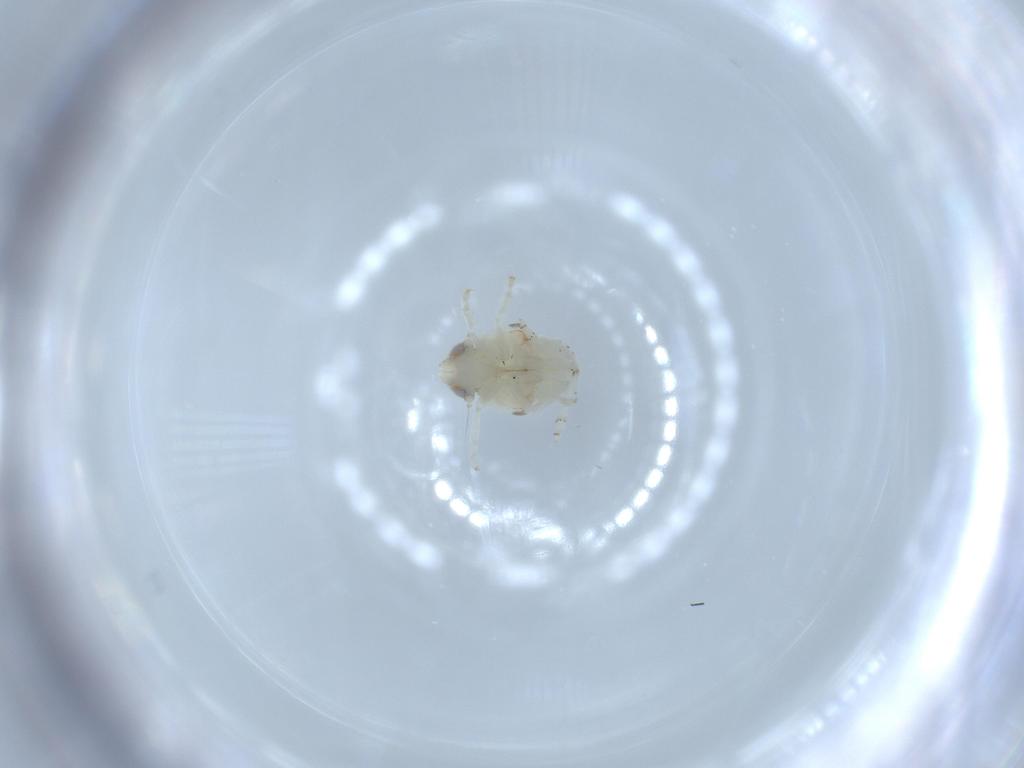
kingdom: Animalia
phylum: Arthropoda
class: Insecta
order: Hemiptera
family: Nogodinidae
